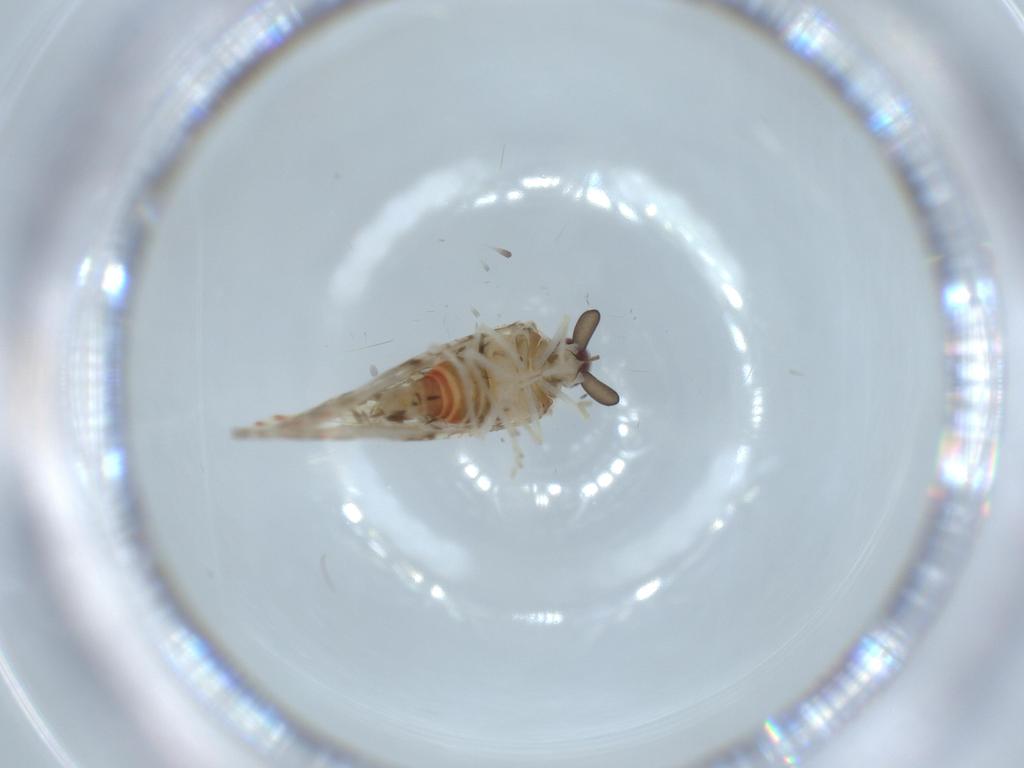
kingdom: Animalia
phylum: Arthropoda
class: Insecta
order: Hemiptera
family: Derbidae
